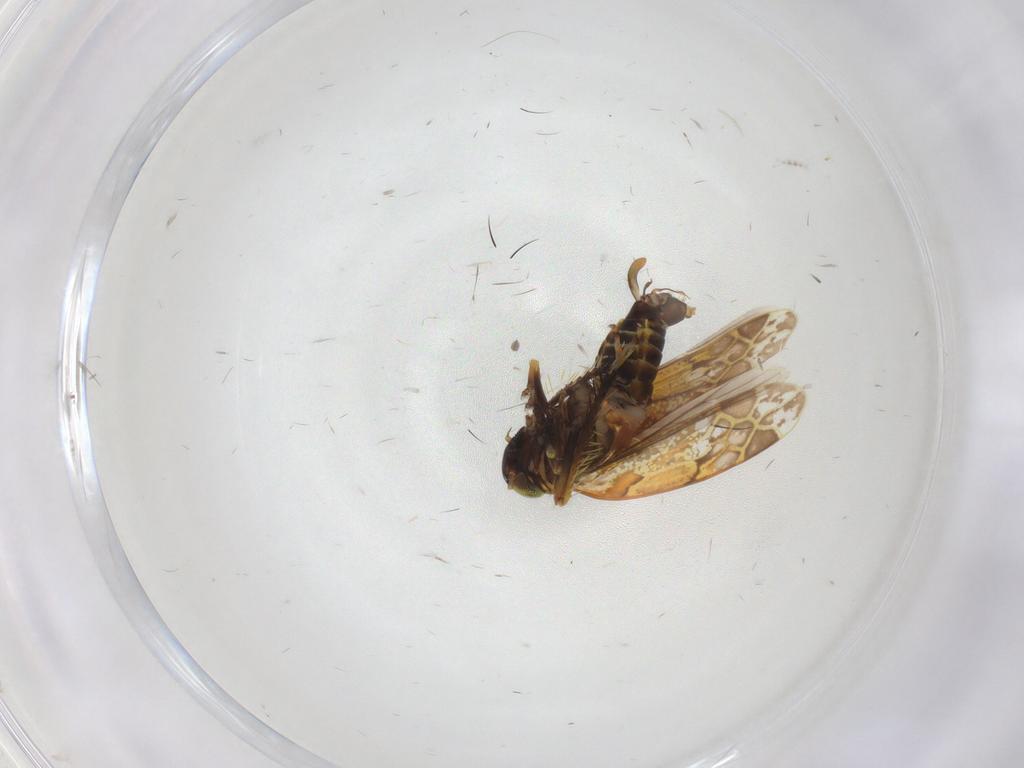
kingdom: Animalia
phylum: Arthropoda
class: Insecta
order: Hemiptera
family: Cicadellidae
